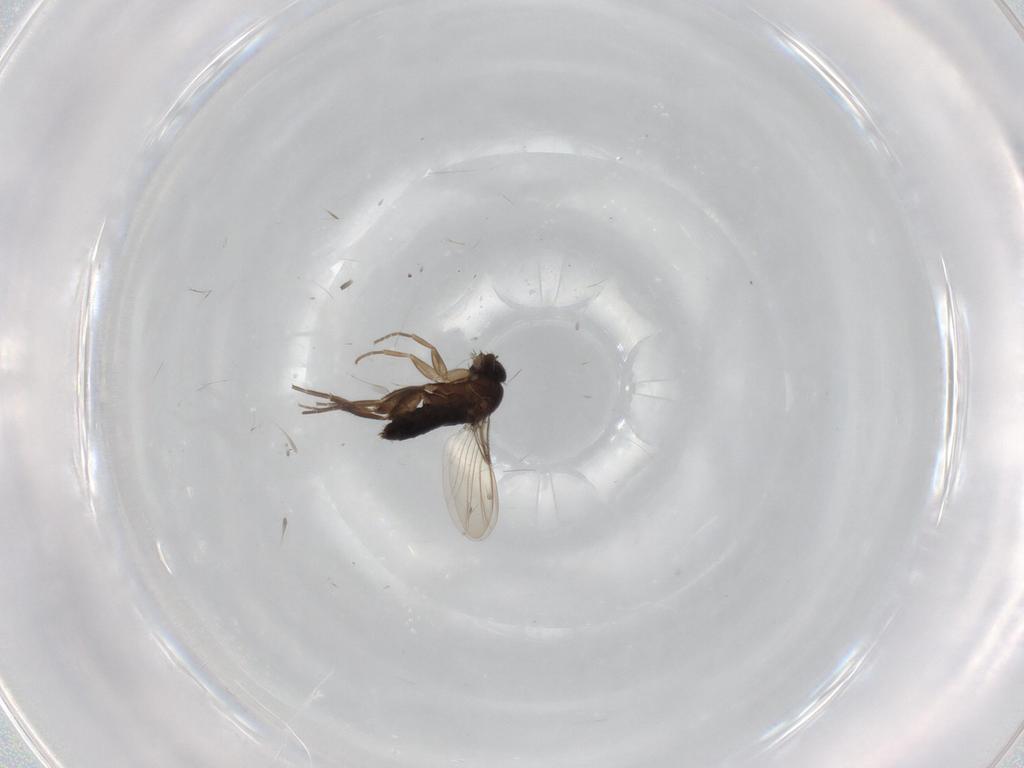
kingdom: Animalia
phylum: Arthropoda
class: Insecta
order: Diptera
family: Phoridae
